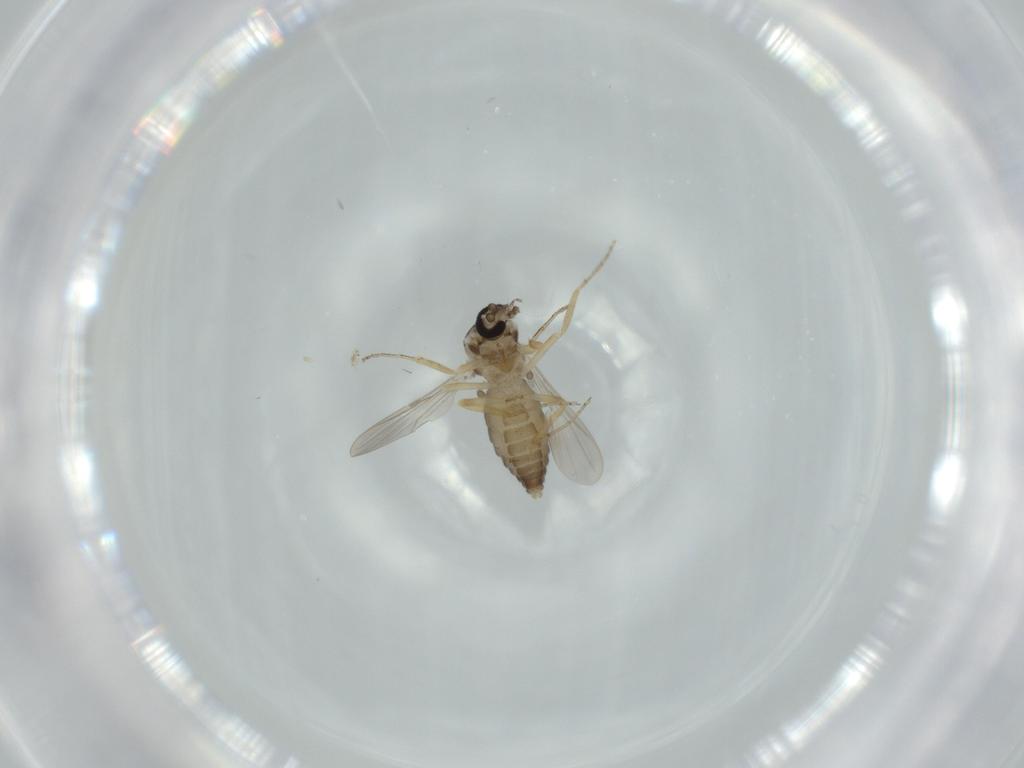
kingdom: Animalia
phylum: Arthropoda
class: Insecta
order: Diptera
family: Ceratopogonidae
